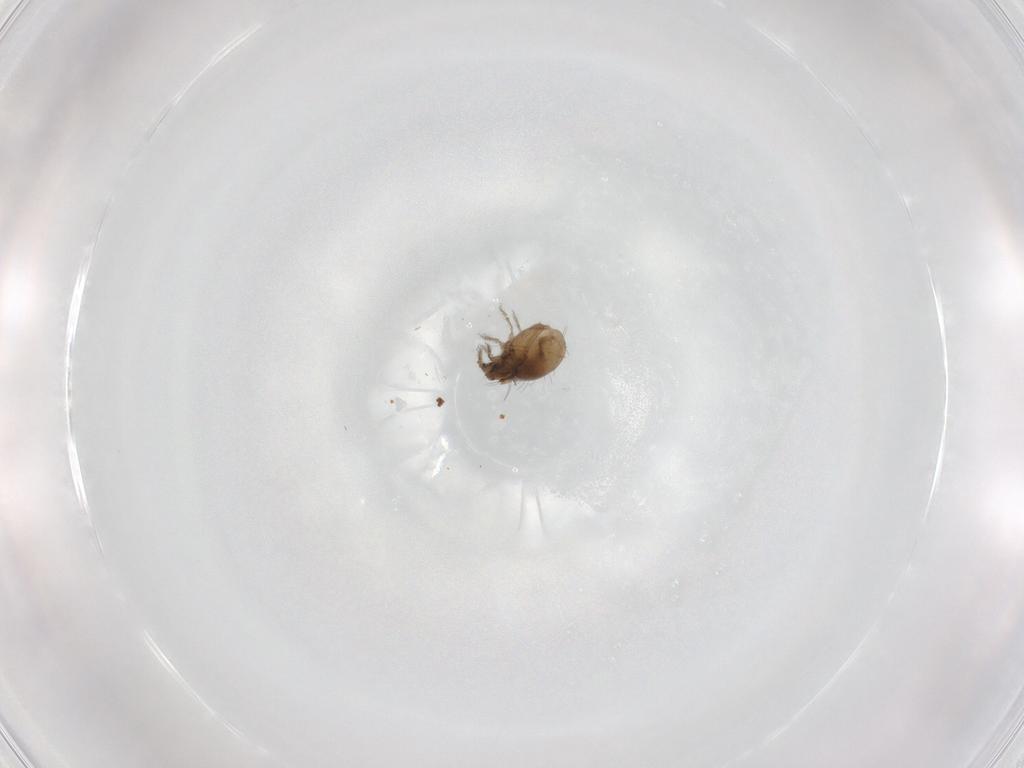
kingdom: Animalia
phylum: Arthropoda
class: Arachnida
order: Sarcoptiformes
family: Humerobatidae
